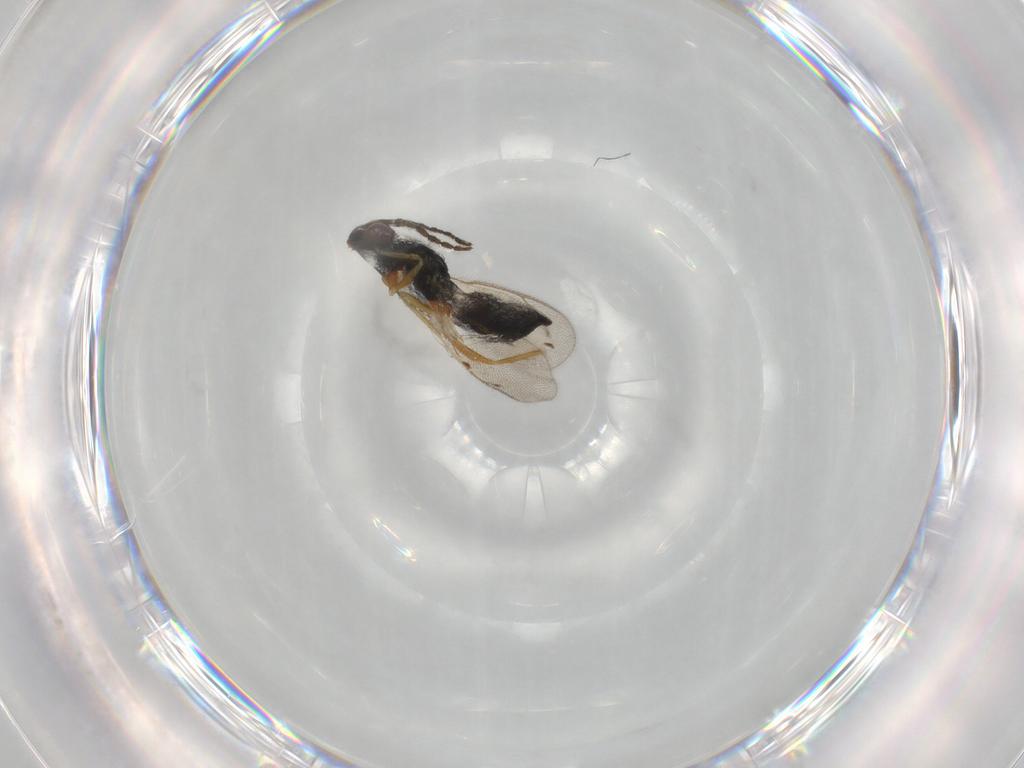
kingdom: Animalia
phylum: Arthropoda
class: Insecta
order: Hymenoptera
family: Eulophidae
